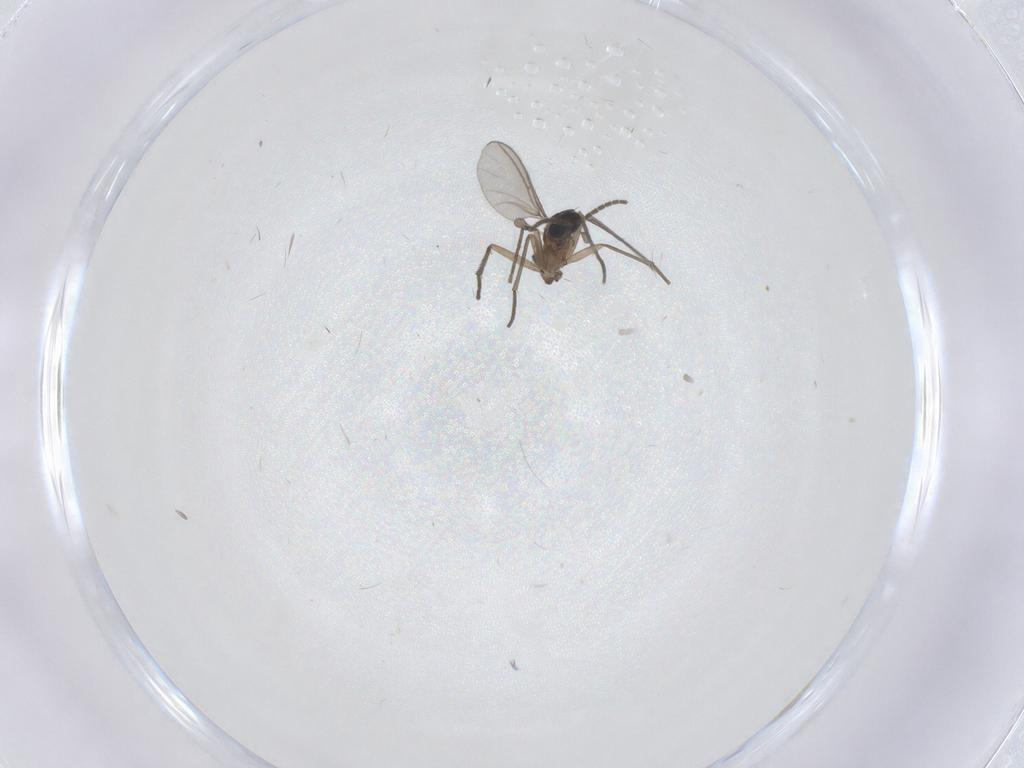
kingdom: Animalia
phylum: Arthropoda
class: Insecta
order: Diptera
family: Sciaridae
